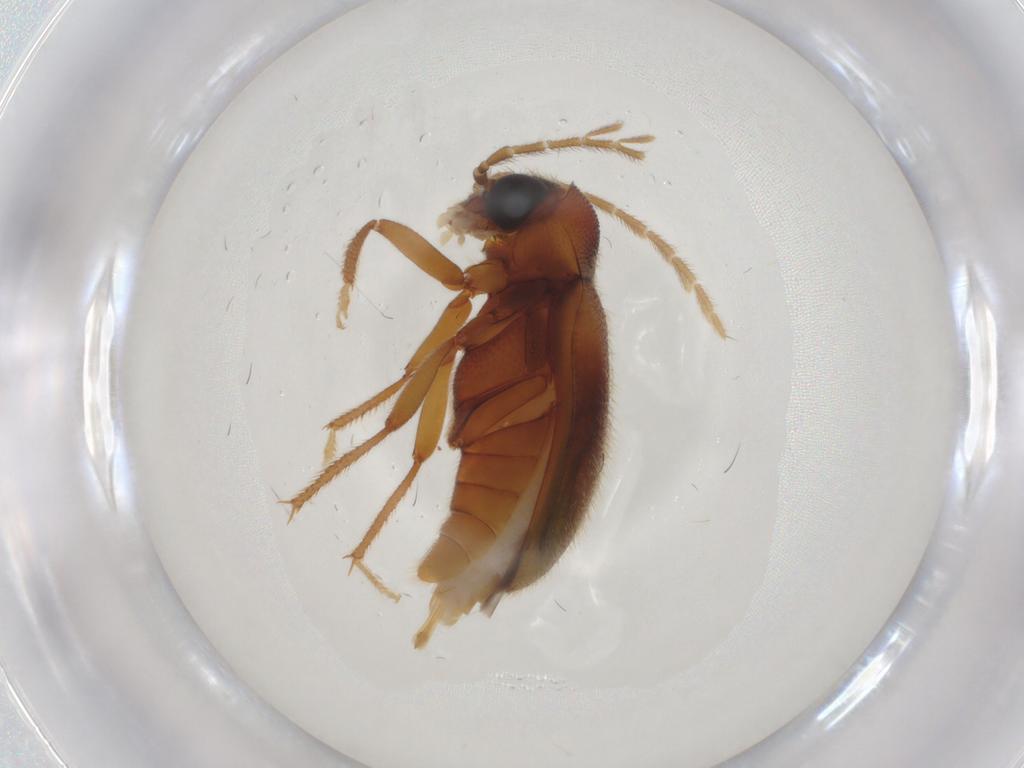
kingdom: Animalia
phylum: Arthropoda
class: Insecta
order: Coleoptera
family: Ptilodactylidae
